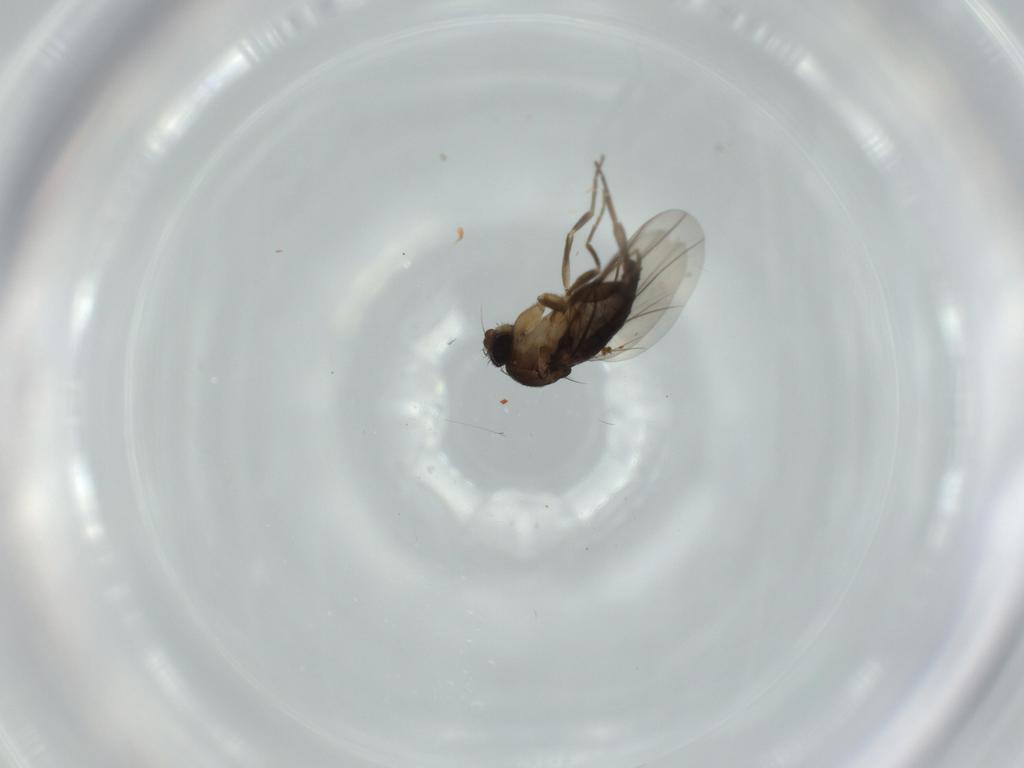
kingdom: Animalia
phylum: Arthropoda
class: Insecta
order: Diptera
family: Phoridae
